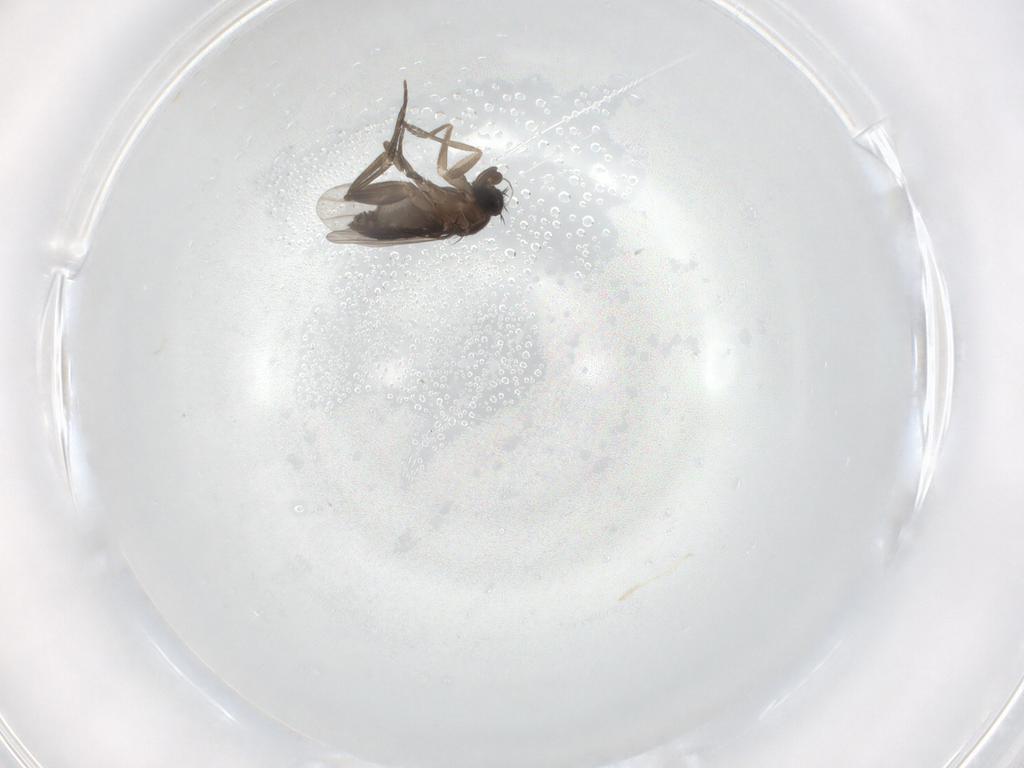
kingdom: Animalia
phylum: Arthropoda
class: Insecta
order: Diptera
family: Phoridae
